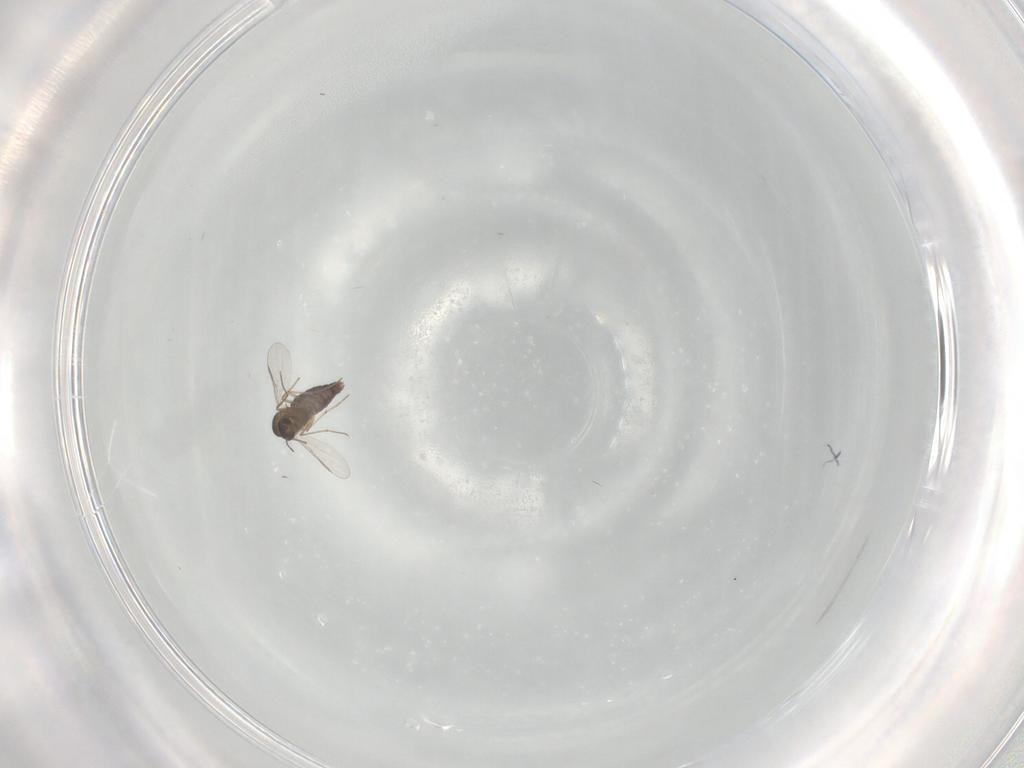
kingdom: Animalia
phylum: Arthropoda
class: Insecta
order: Diptera
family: Chironomidae
